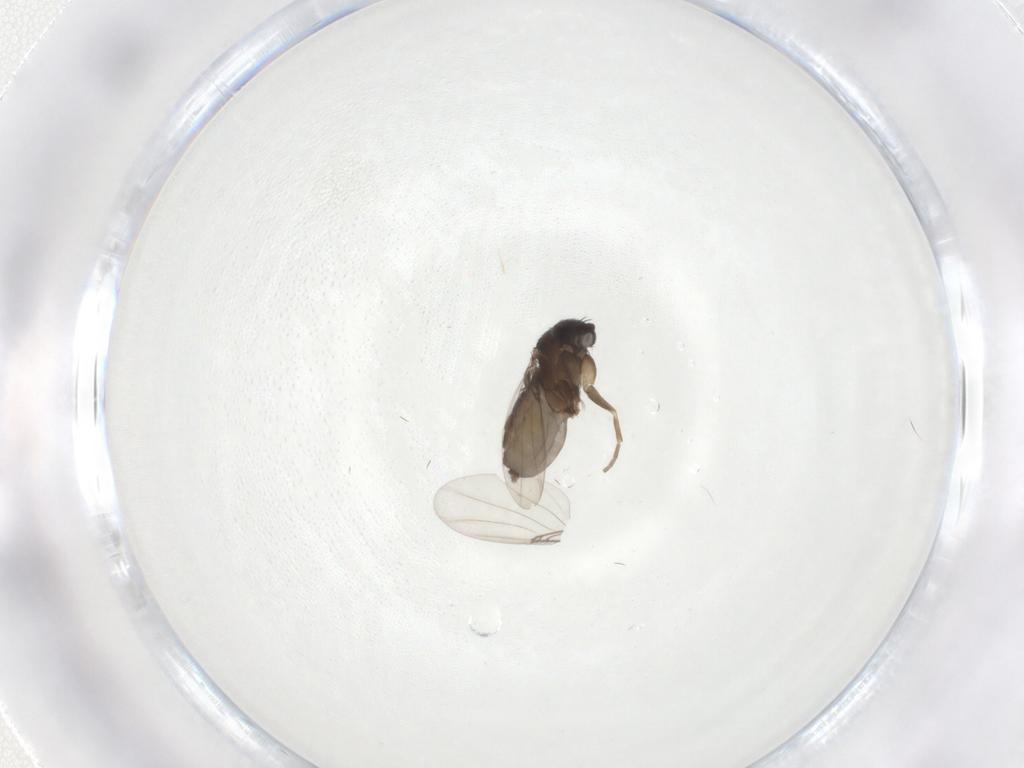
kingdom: Animalia
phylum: Arthropoda
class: Insecta
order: Diptera
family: Phoridae
